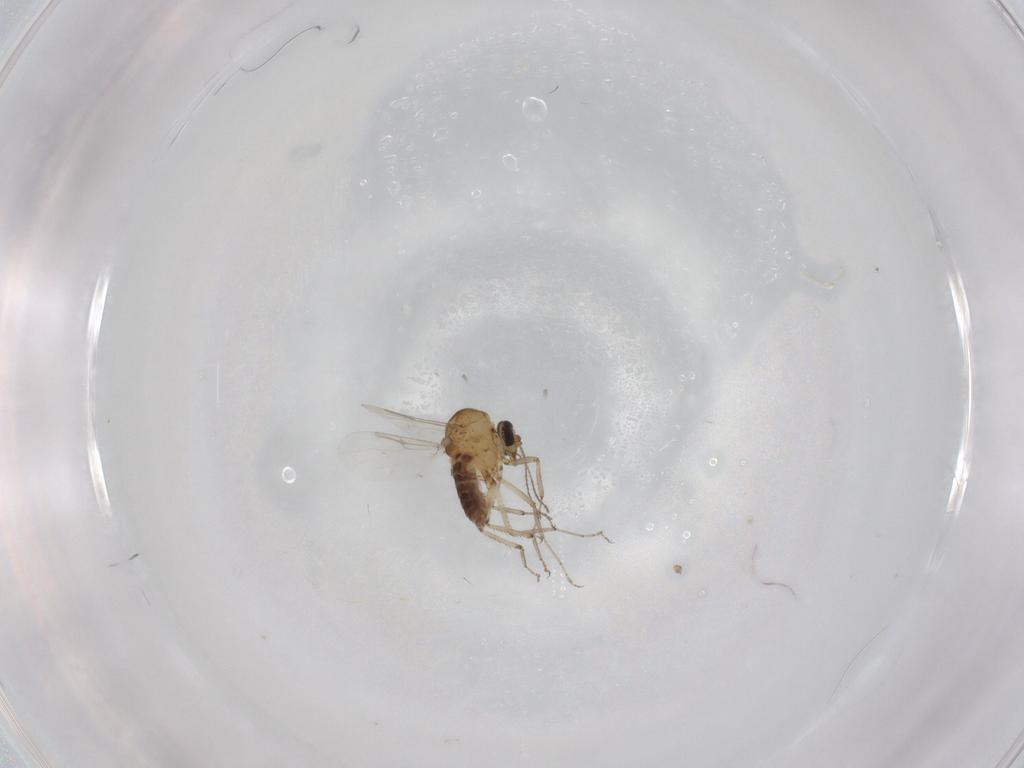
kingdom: Animalia
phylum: Arthropoda
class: Insecta
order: Diptera
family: Ceratopogonidae
